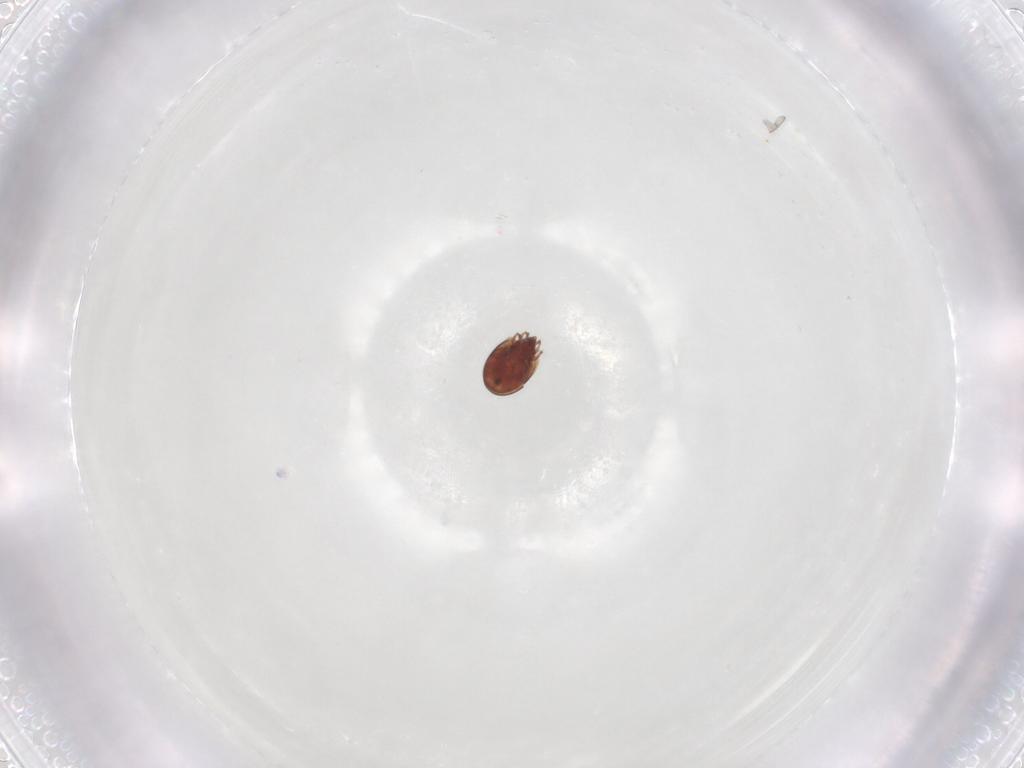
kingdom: Animalia
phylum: Arthropoda
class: Arachnida
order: Sarcoptiformes
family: Scheloribatidae
